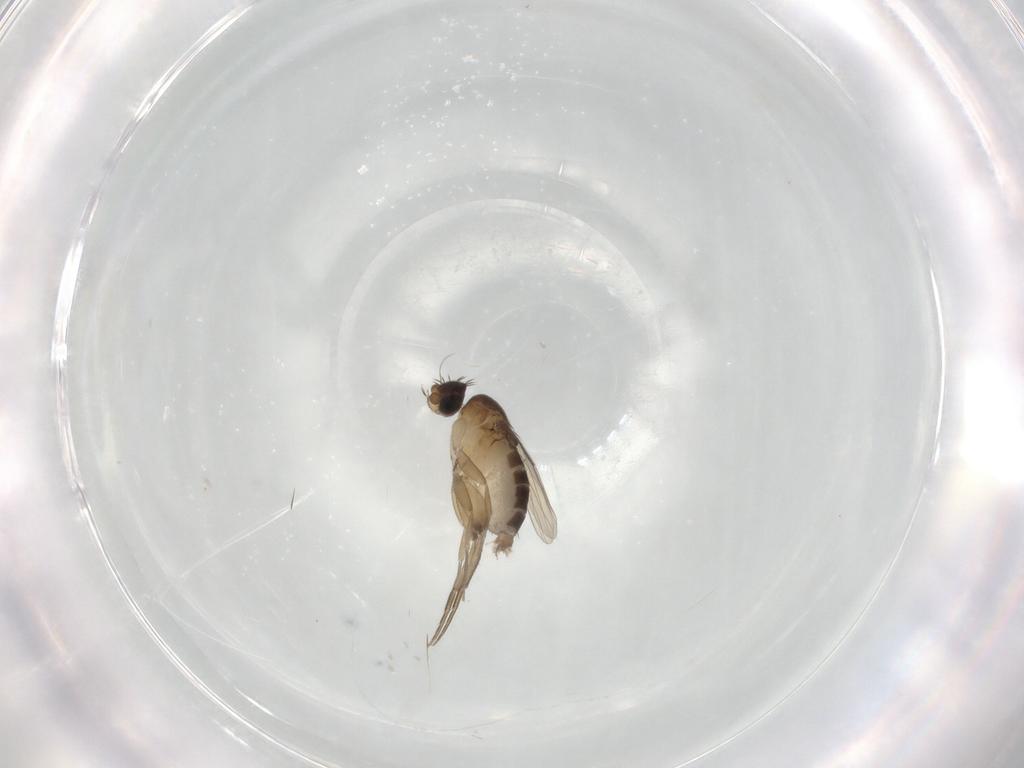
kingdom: Animalia
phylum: Arthropoda
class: Insecta
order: Diptera
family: Phoridae
